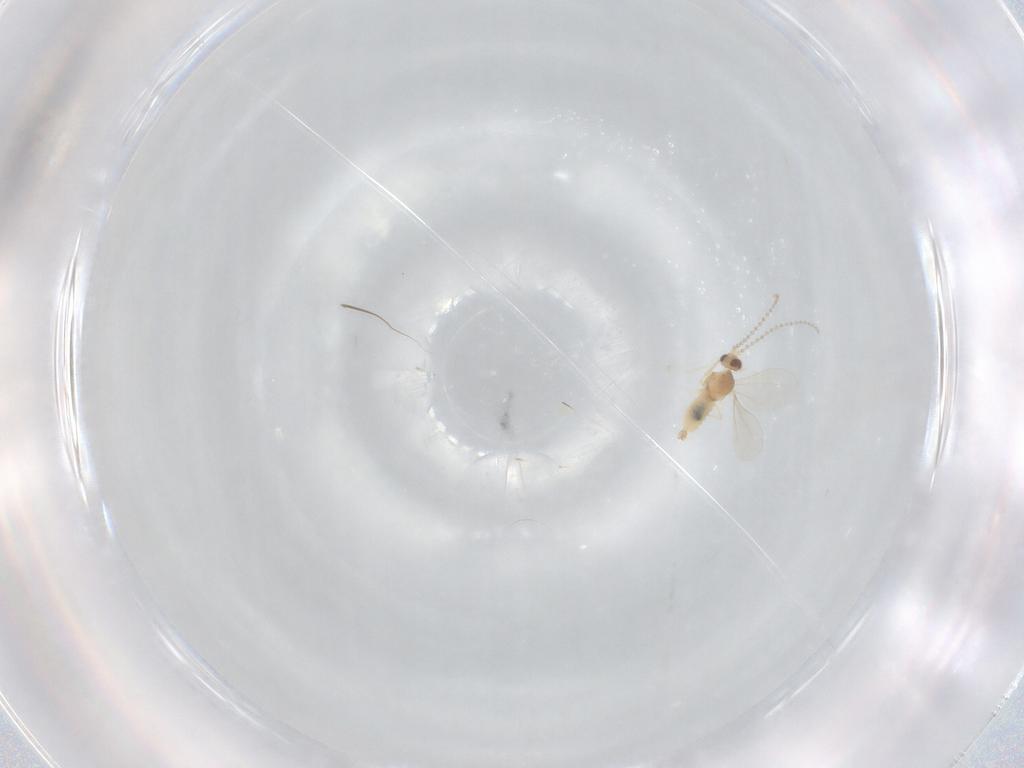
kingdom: Animalia
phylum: Arthropoda
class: Insecta
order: Diptera
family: Cecidomyiidae
